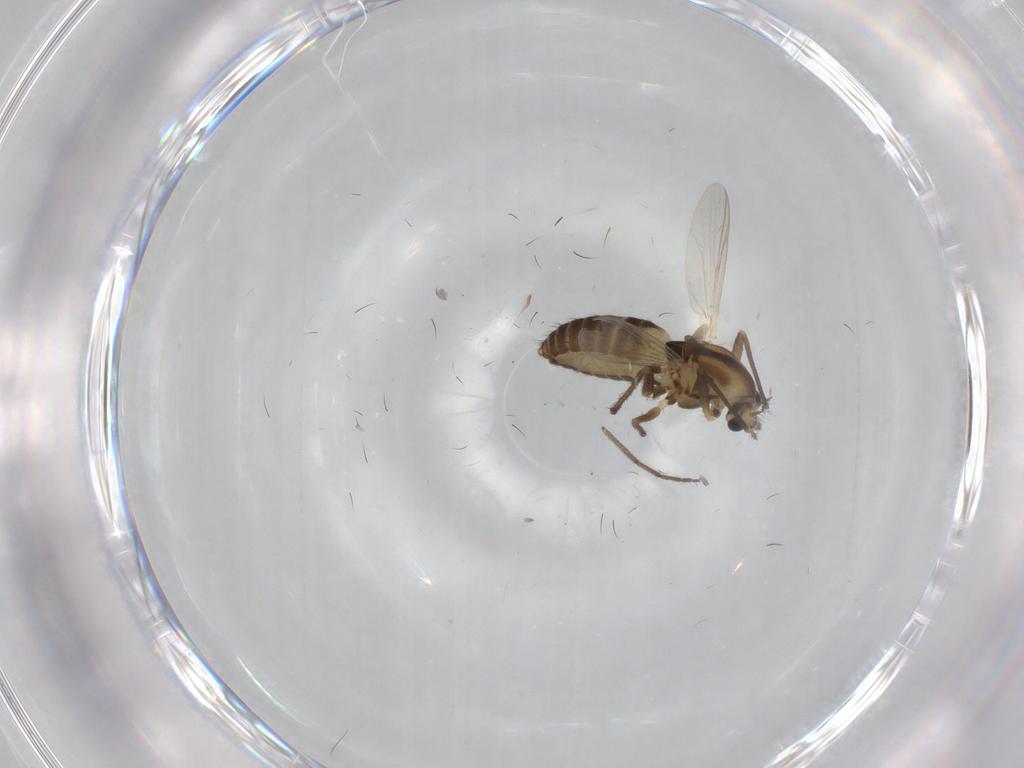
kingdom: Animalia
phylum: Arthropoda
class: Insecta
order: Diptera
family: Chironomidae
